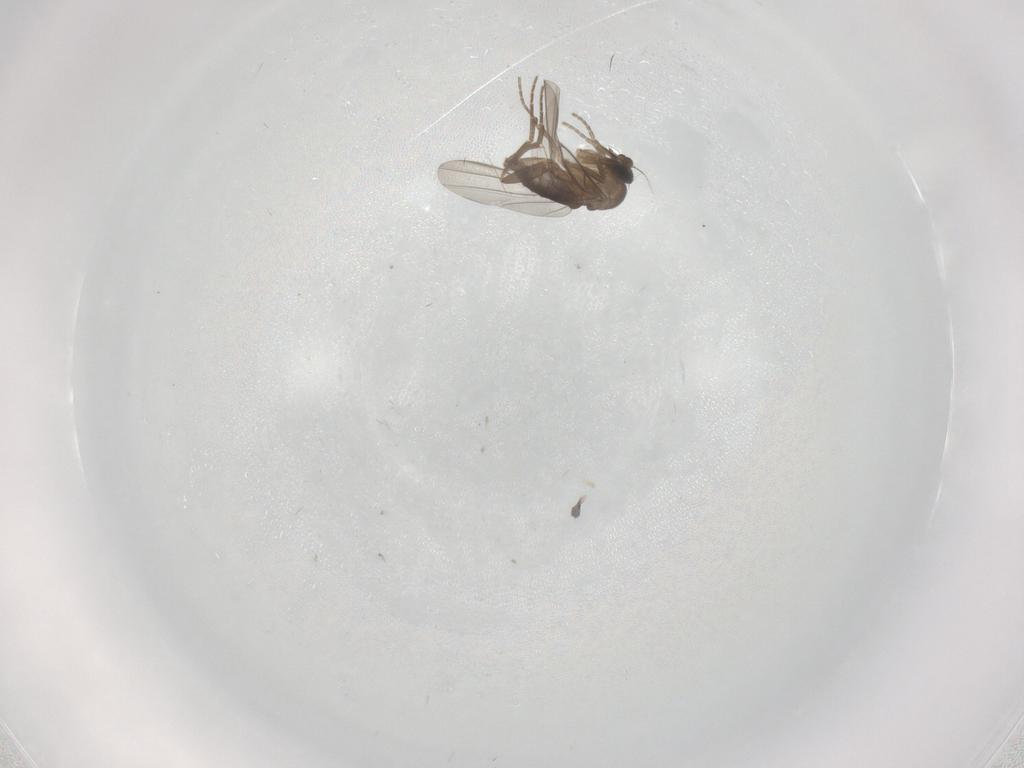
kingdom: Animalia
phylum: Arthropoda
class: Insecta
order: Diptera
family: Chironomidae
